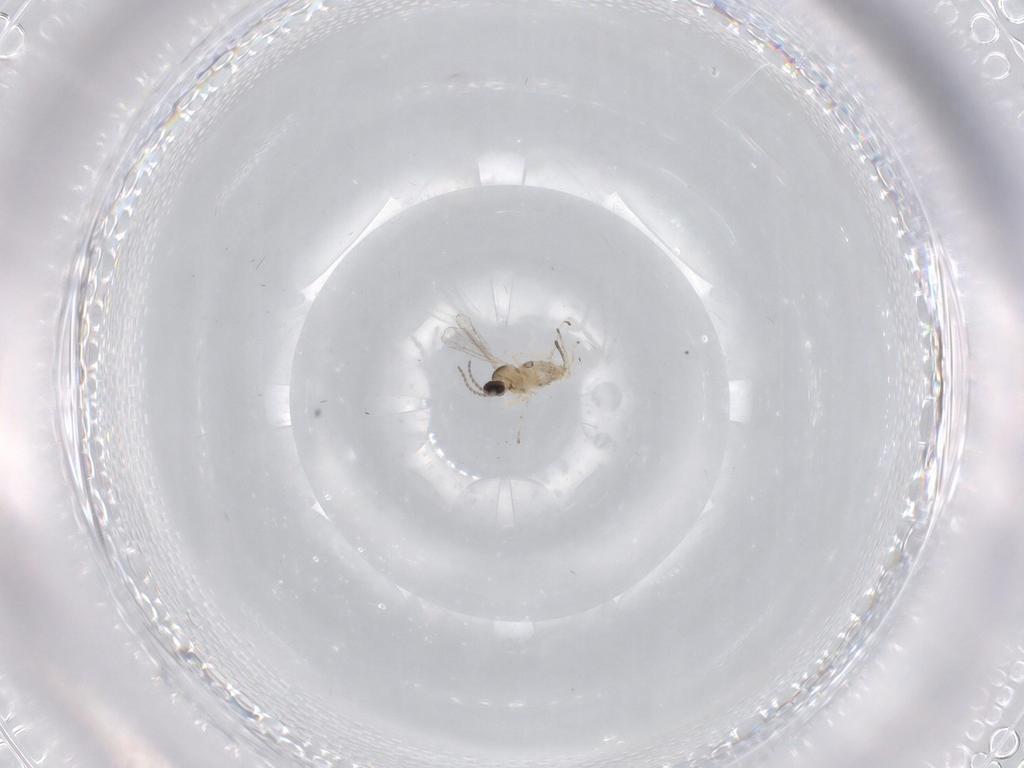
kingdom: Animalia
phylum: Arthropoda
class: Insecta
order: Diptera
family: Cecidomyiidae
